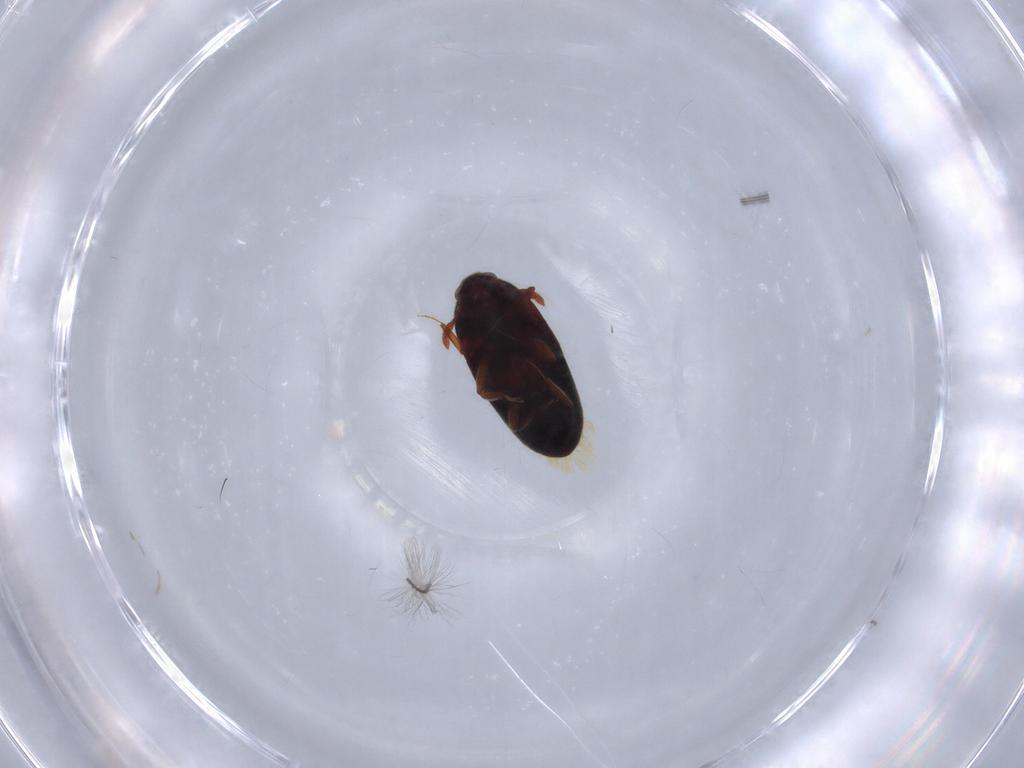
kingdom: Animalia
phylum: Arthropoda
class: Insecta
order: Coleoptera
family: Throscidae
